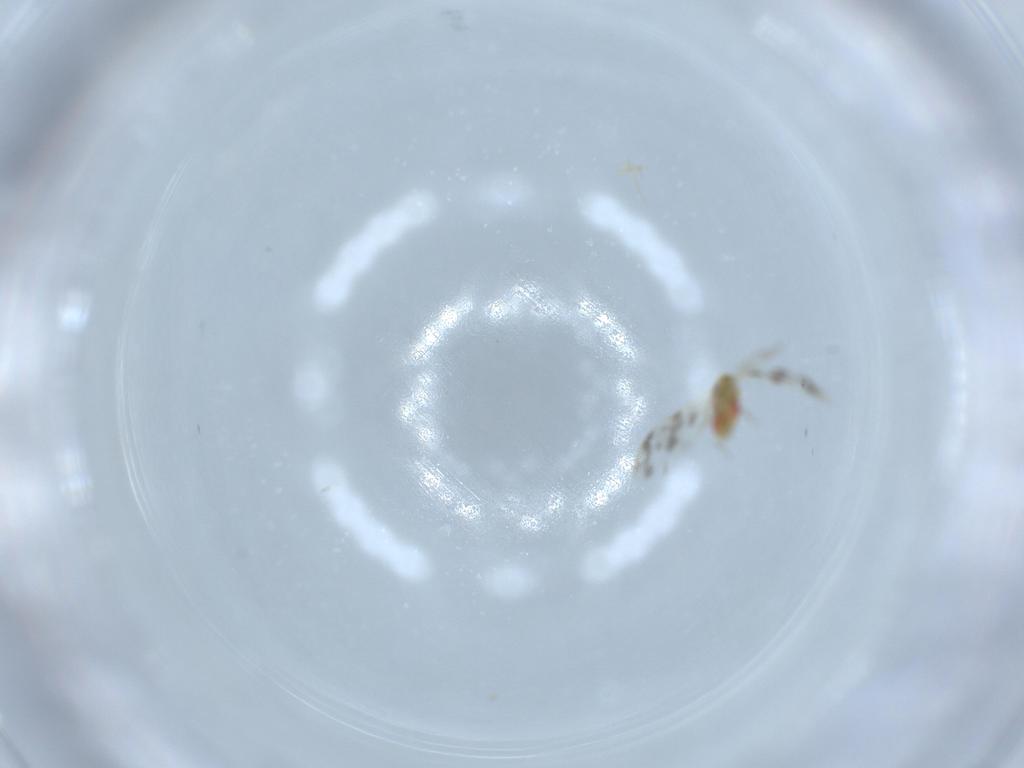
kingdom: Animalia
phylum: Arthropoda
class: Insecta
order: Hemiptera
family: Aleyrodidae
